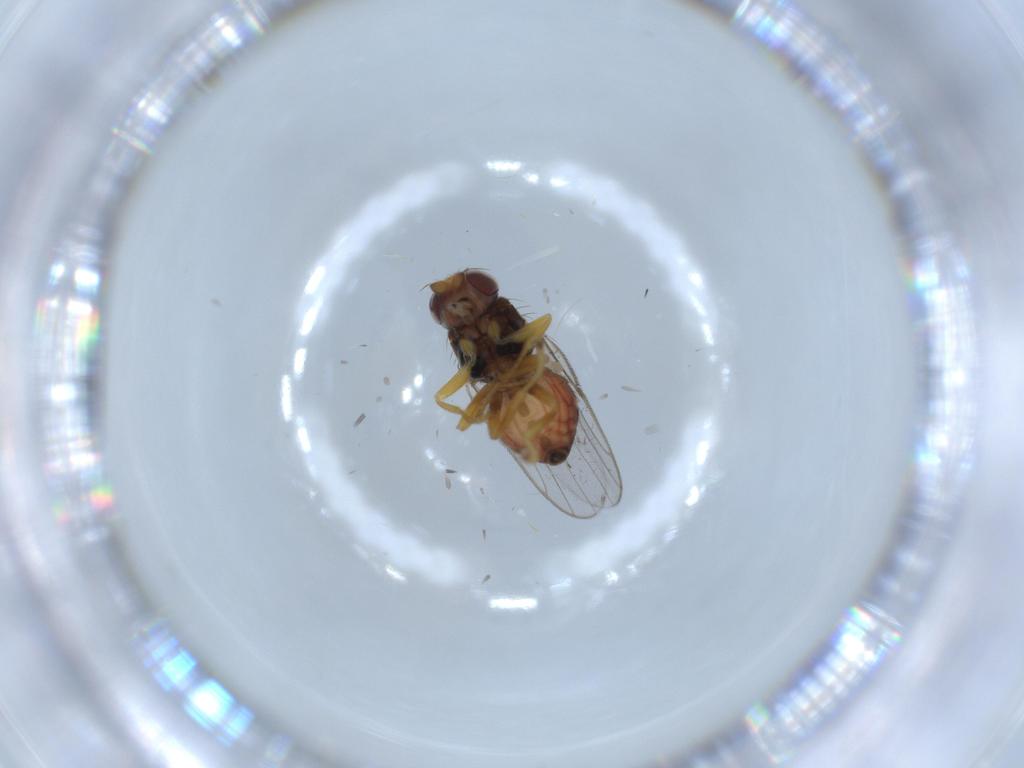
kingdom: Animalia
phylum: Arthropoda
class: Insecta
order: Diptera
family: Chloropidae
